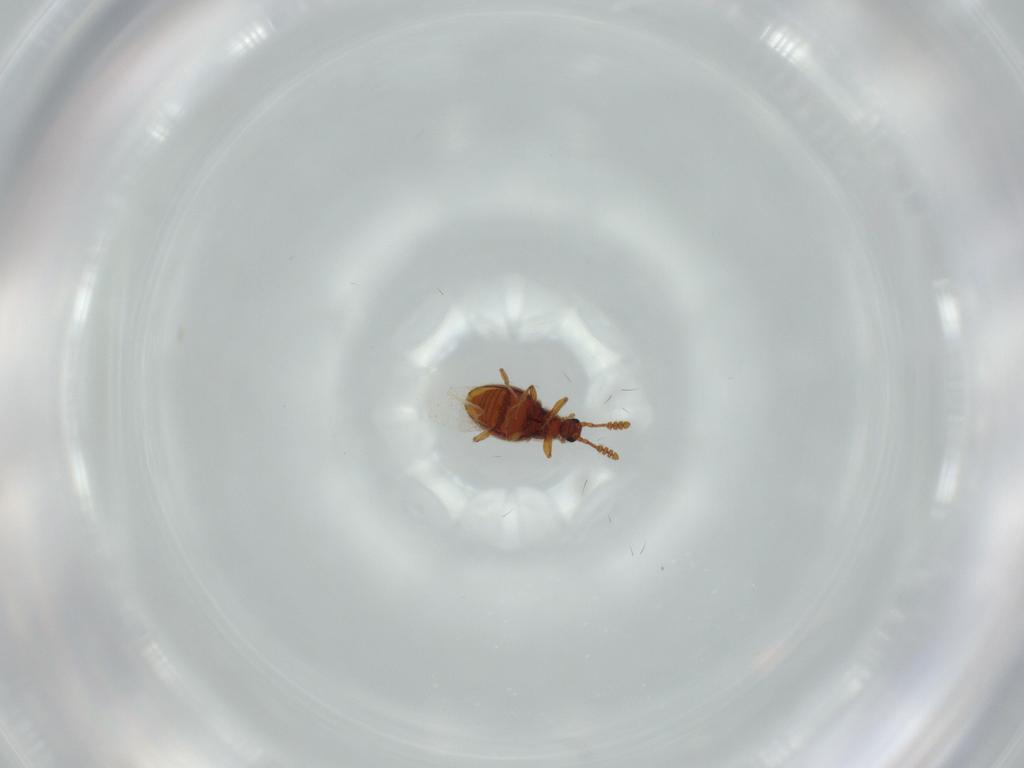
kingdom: Animalia
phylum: Arthropoda
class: Insecta
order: Coleoptera
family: Staphylinidae
